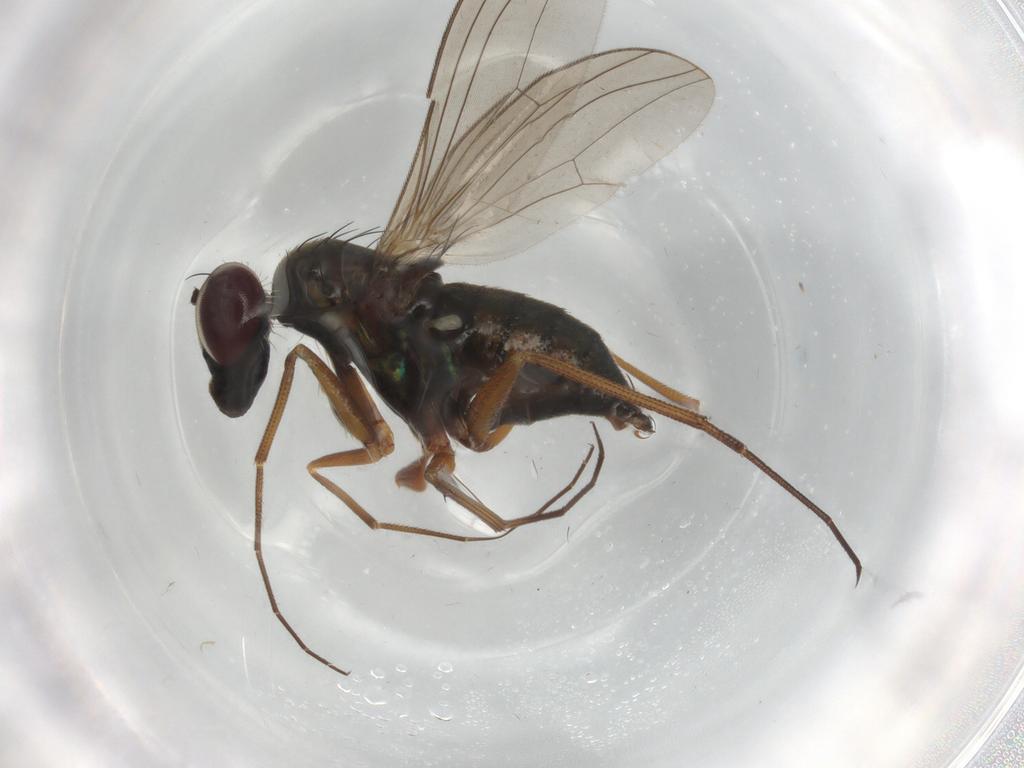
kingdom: Animalia
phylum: Arthropoda
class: Insecta
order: Diptera
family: Dolichopodidae
